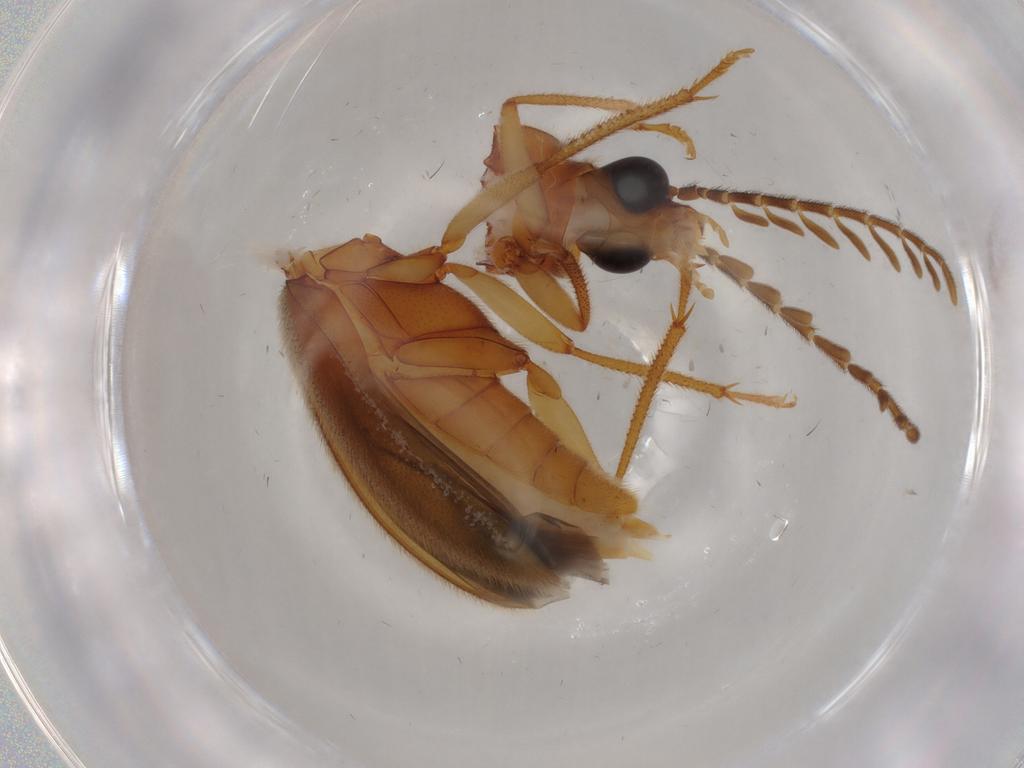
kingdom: Animalia
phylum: Arthropoda
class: Insecta
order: Coleoptera
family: Ptilodactylidae
